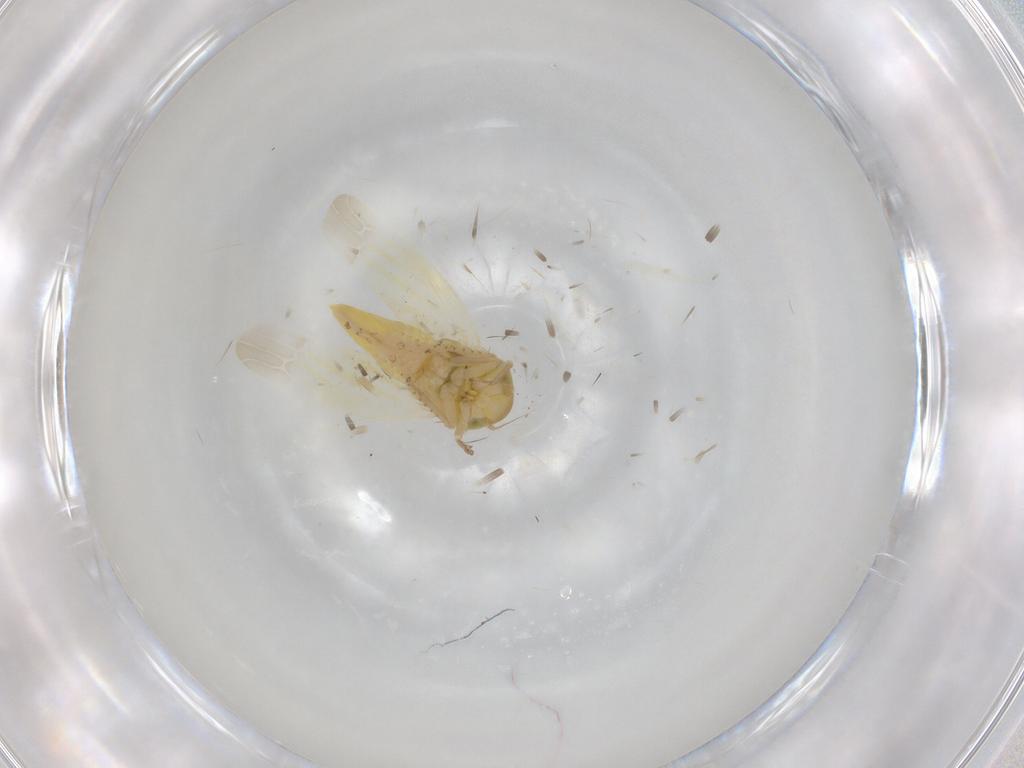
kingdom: Animalia
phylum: Arthropoda
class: Insecta
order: Hemiptera
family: Cicadellidae
